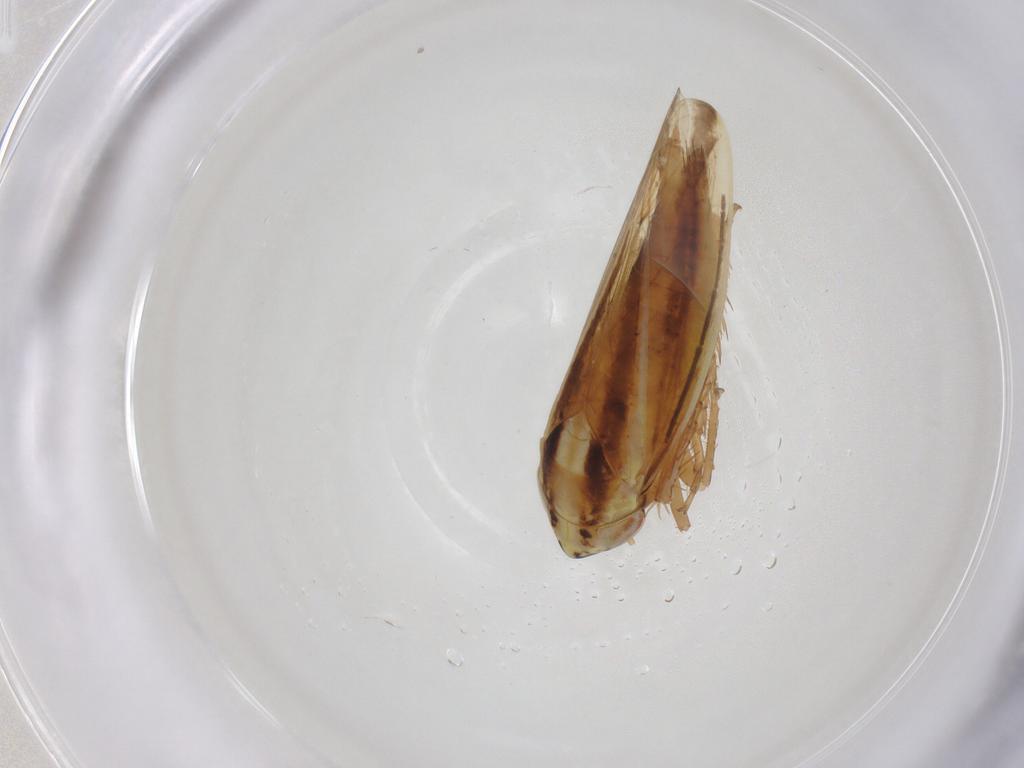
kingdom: Animalia
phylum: Arthropoda
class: Insecta
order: Hemiptera
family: Cicadellidae
